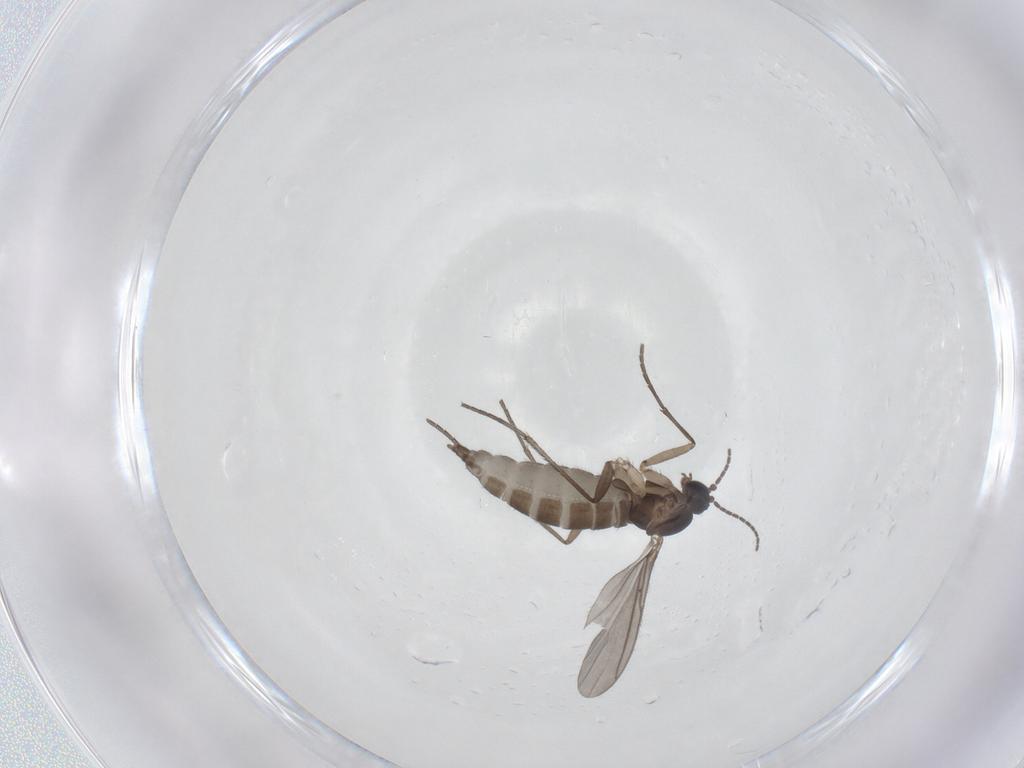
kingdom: Animalia
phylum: Arthropoda
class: Insecta
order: Diptera
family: Sciaridae
